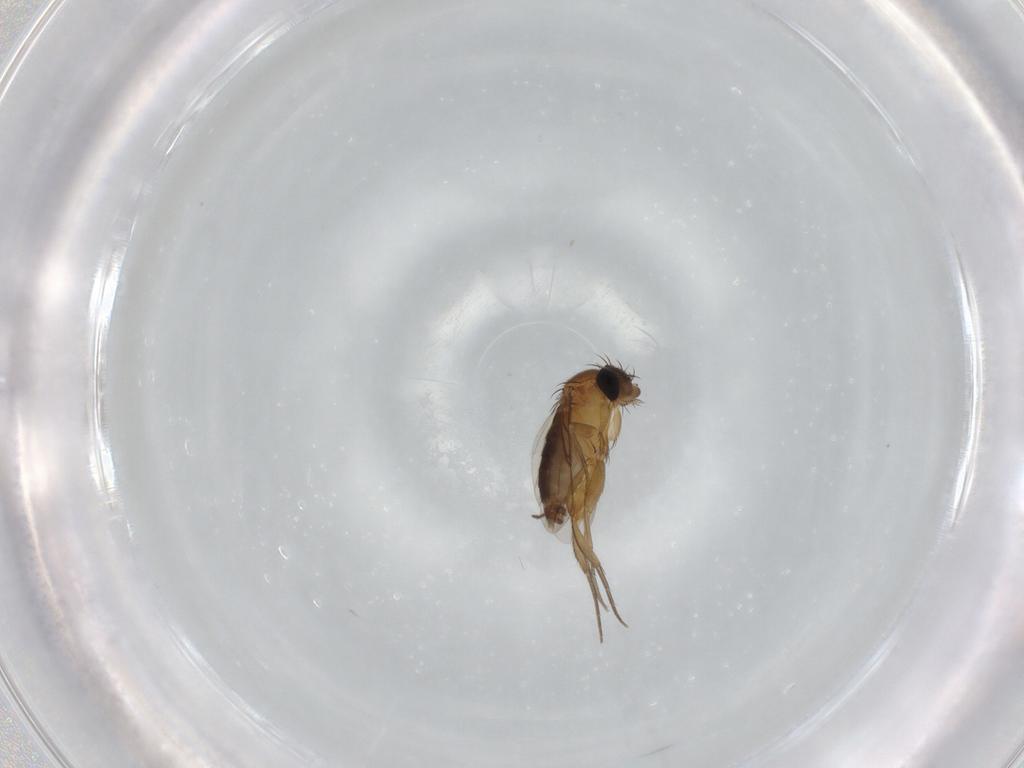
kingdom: Animalia
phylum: Arthropoda
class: Insecta
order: Diptera
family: Phoridae
